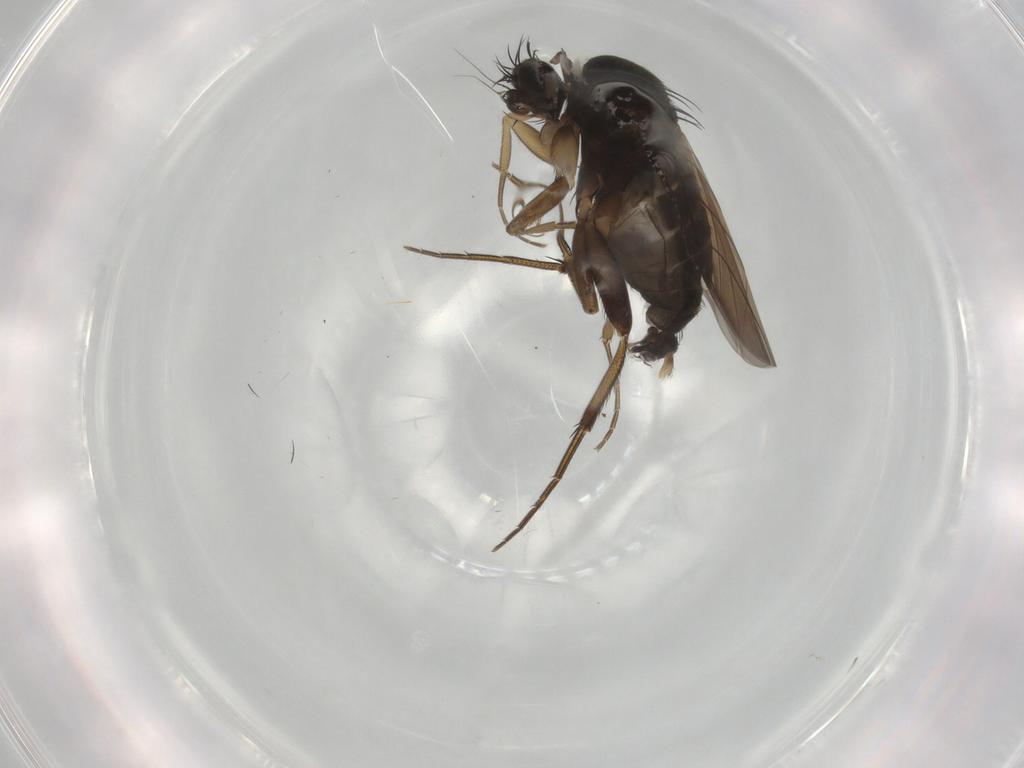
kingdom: Animalia
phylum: Arthropoda
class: Insecta
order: Diptera
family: Phoridae
